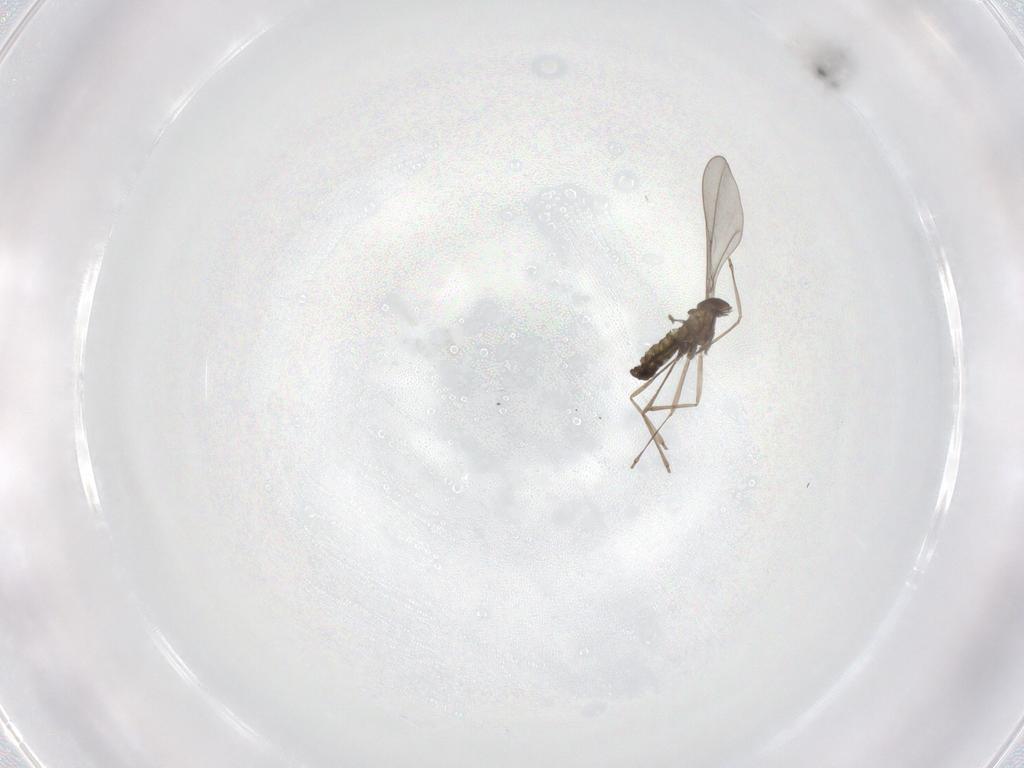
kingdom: Animalia
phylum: Arthropoda
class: Insecta
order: Diptera
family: Cecidomyiidae
